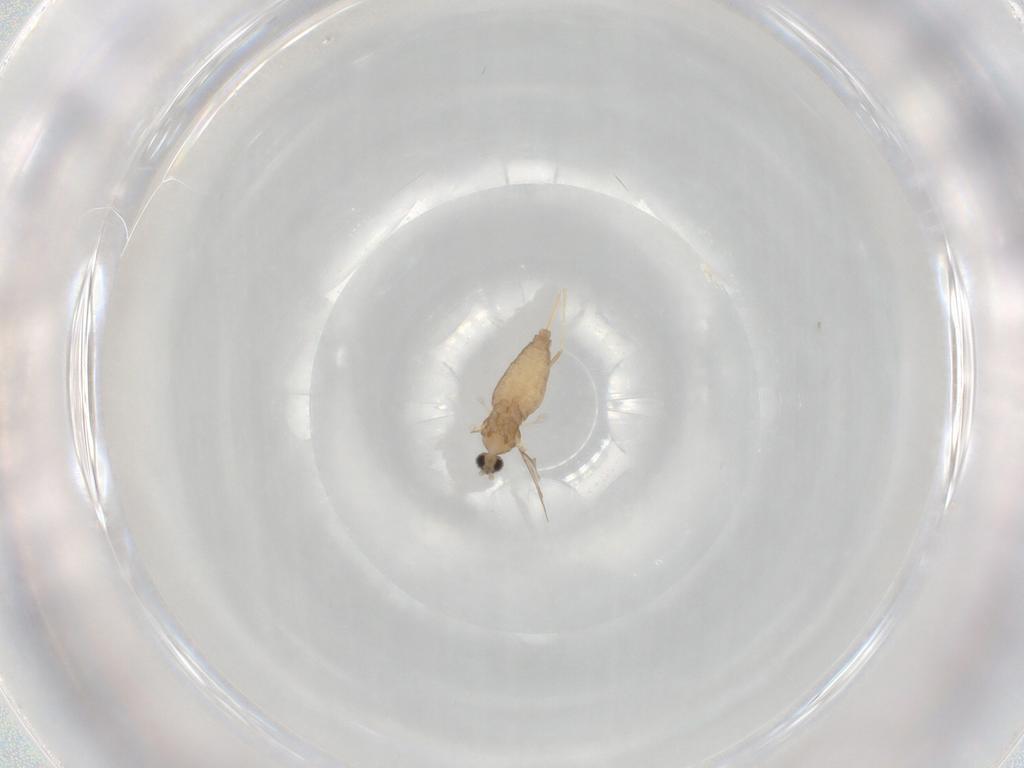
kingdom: Animalia
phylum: Arthropoda
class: Insecta
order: Diptera
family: Cecidomyiidae
